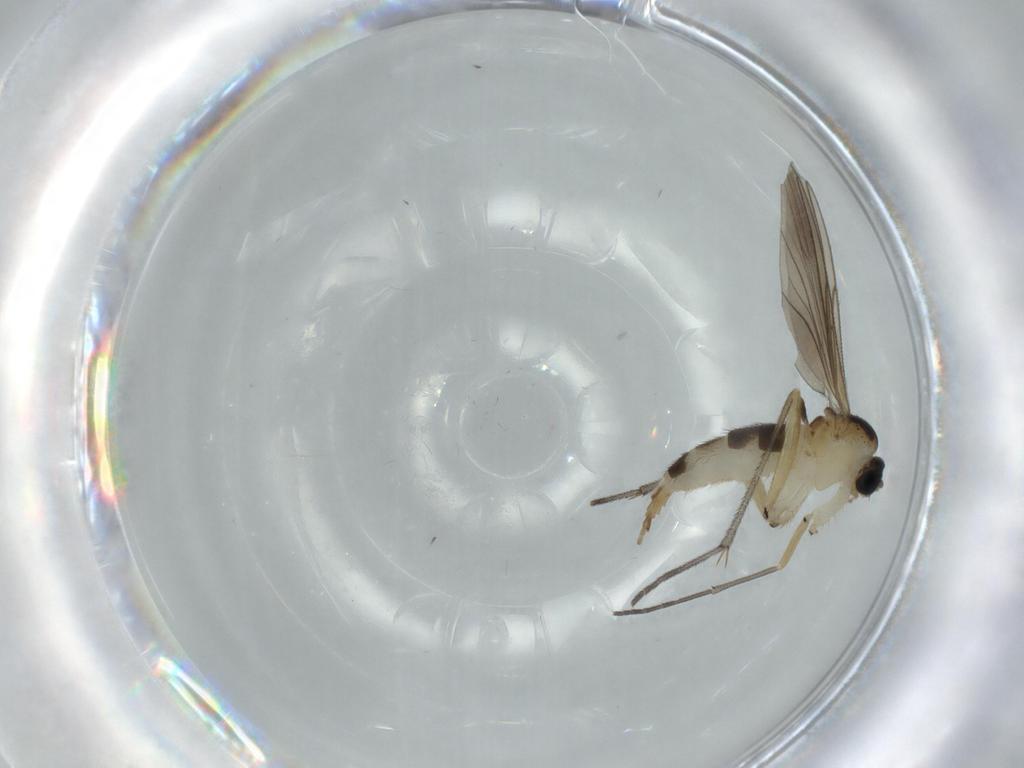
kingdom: Animalia
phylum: Arthropoda
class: Insecta
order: Diptera
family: Sciaridae
